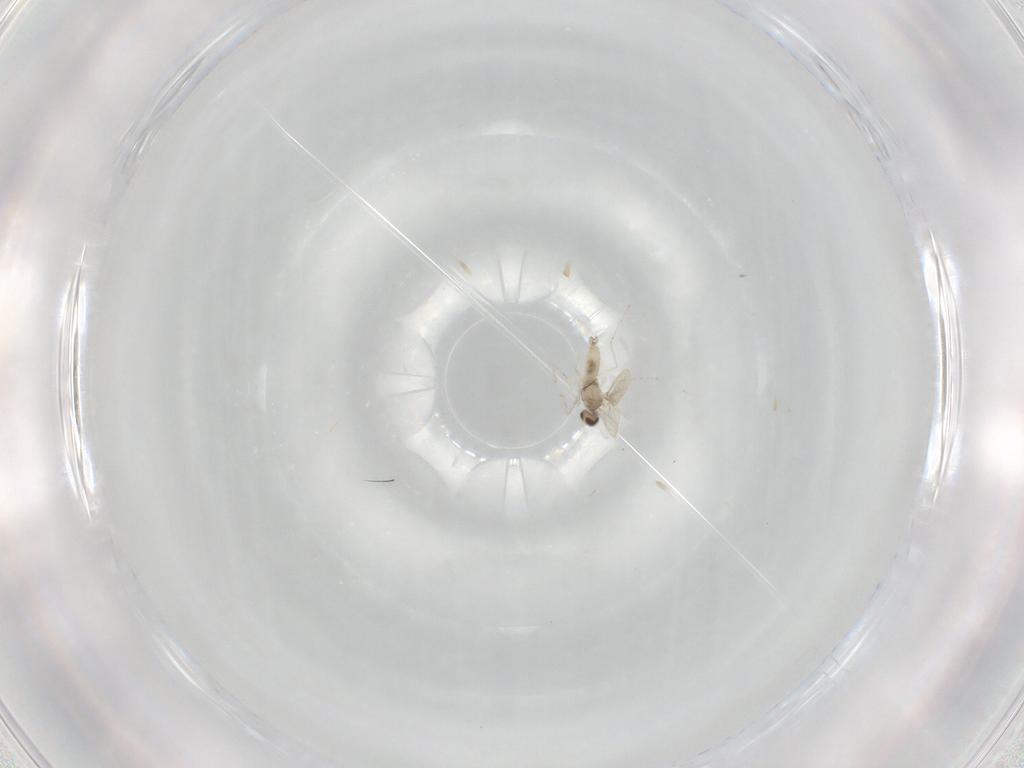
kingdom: Animalia
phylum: Arthropoda
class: Insecta
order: Diptera
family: Cecidomyiidae
